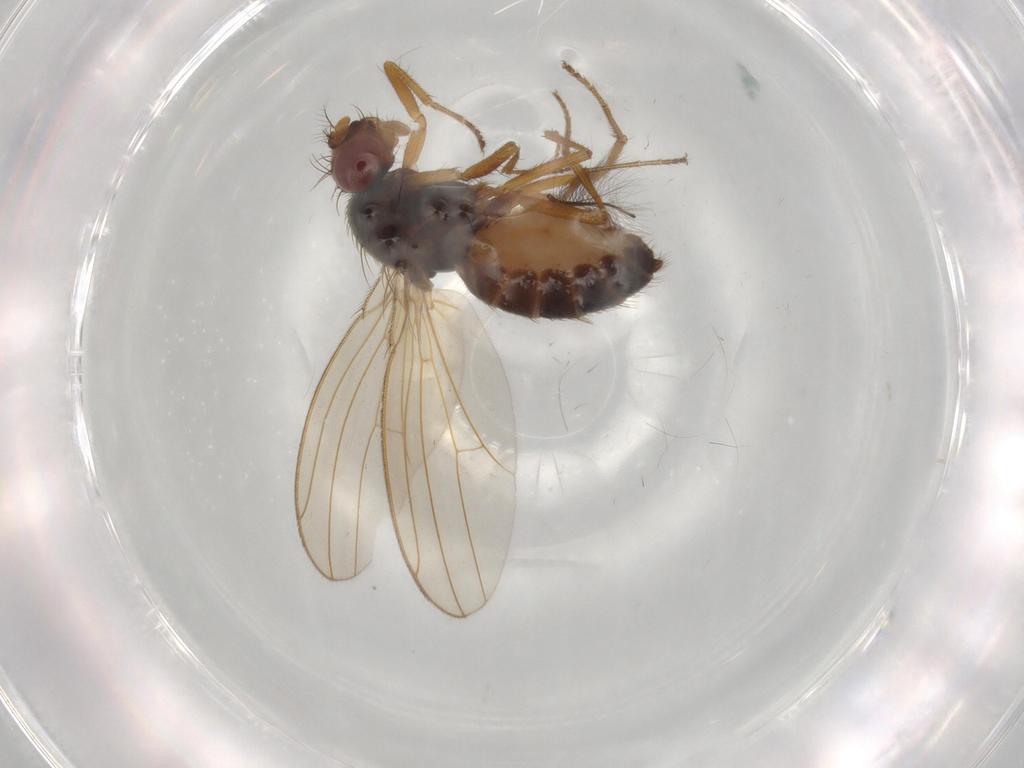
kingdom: Animalia
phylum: Arthropoda
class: Insecta
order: Diptera
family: Drosophilidae
